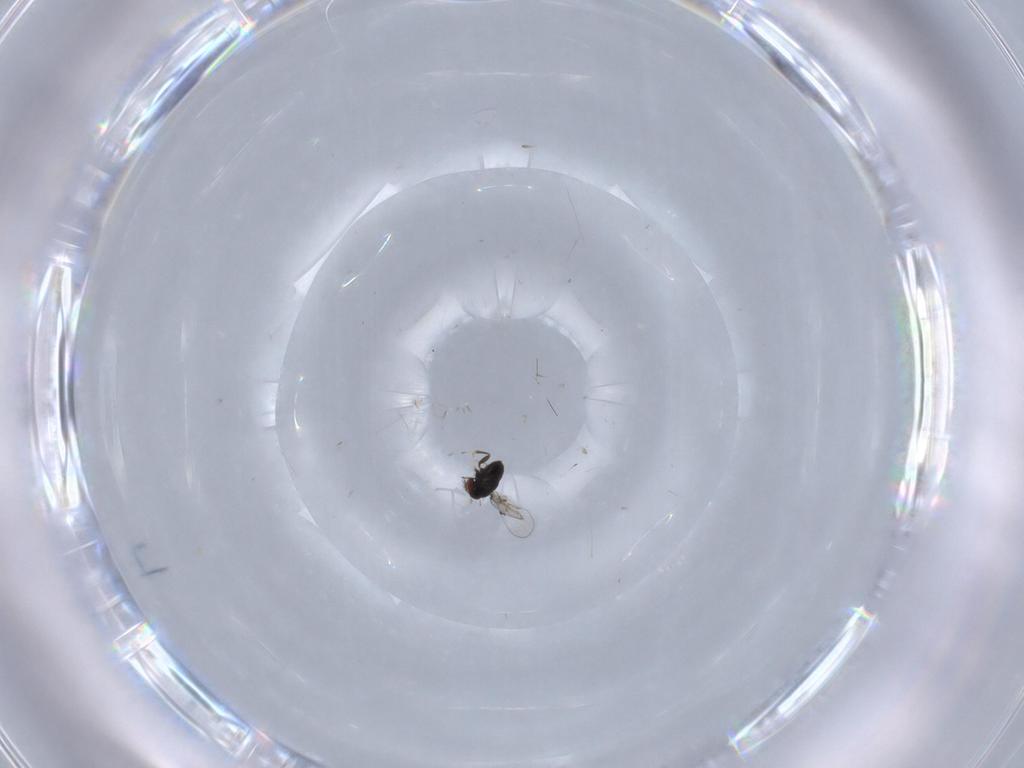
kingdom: Animalia
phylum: Arthropoda
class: Insecta
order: Hymenoptera
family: Trichogrammatidae
